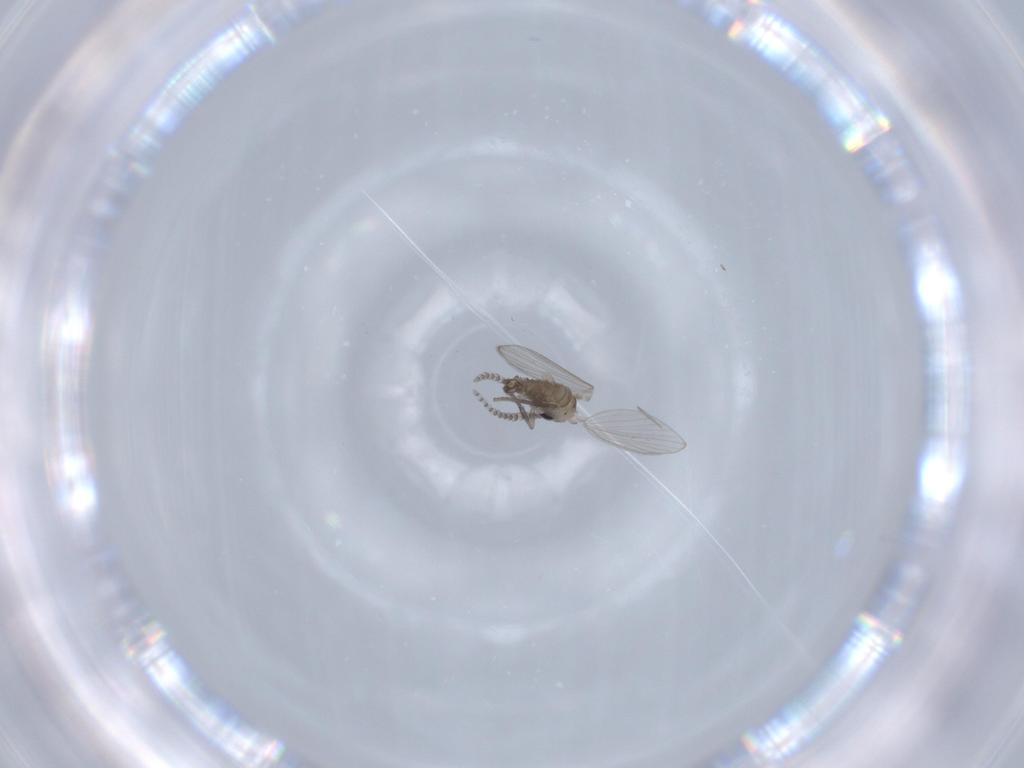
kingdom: Animalia
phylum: Arthropoda
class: Insecta
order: Diptera
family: Psychodidae
